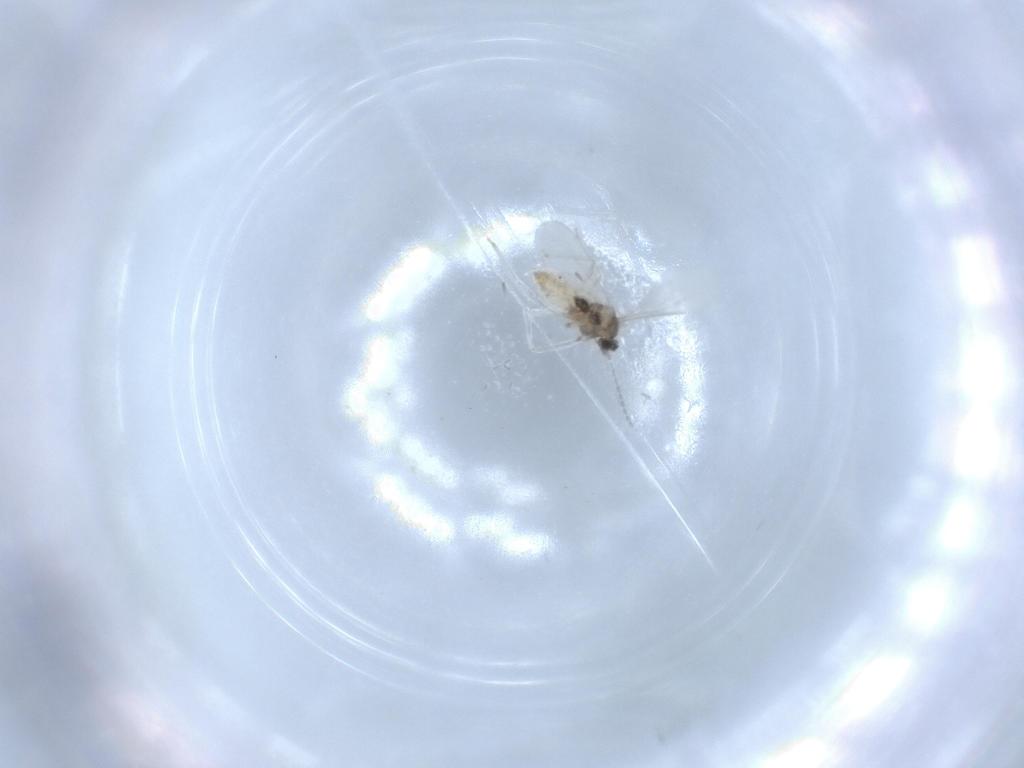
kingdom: Animalia
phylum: Arthropoda
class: Insecta
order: Diptera
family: Cecidomyiidae
